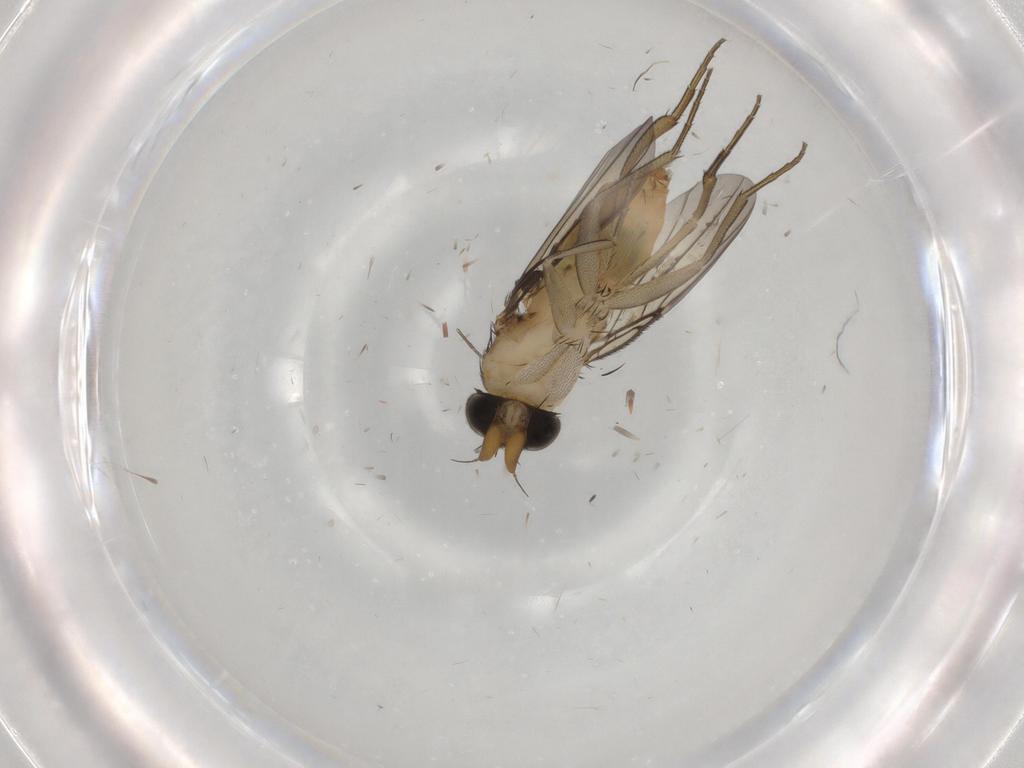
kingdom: Animalia
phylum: Arthropoda
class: Insecta
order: Diptera
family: Phoridae
